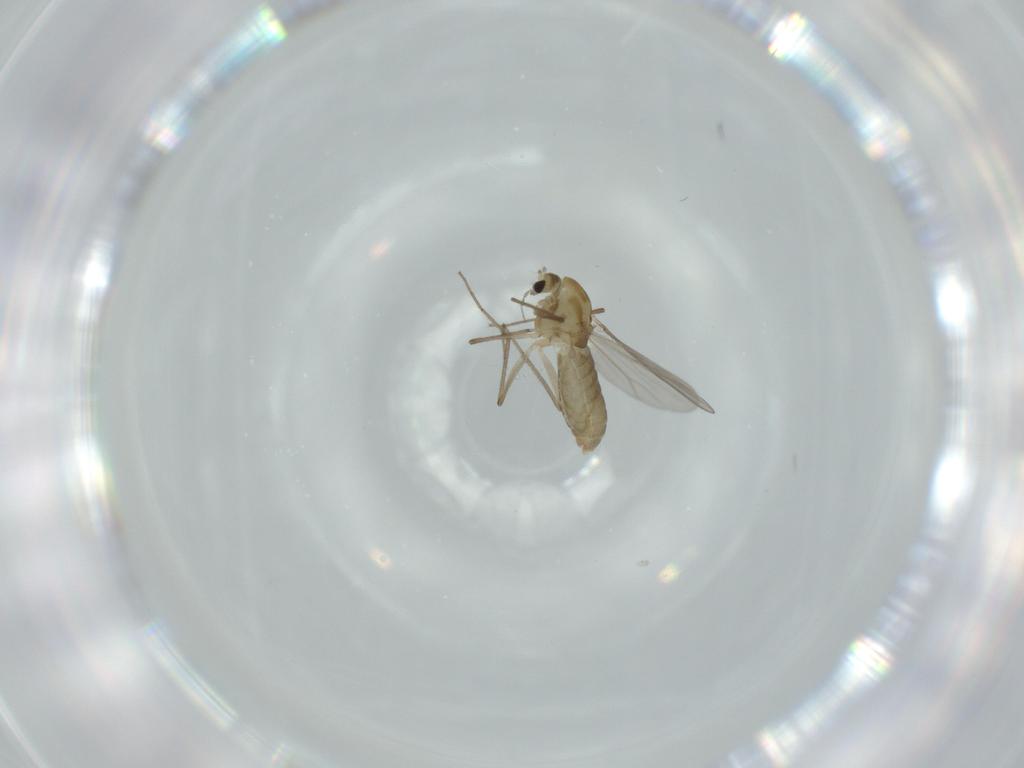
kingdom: Animalia
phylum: Arthropoda
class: Insecta
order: Diptera
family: Chironomidae
